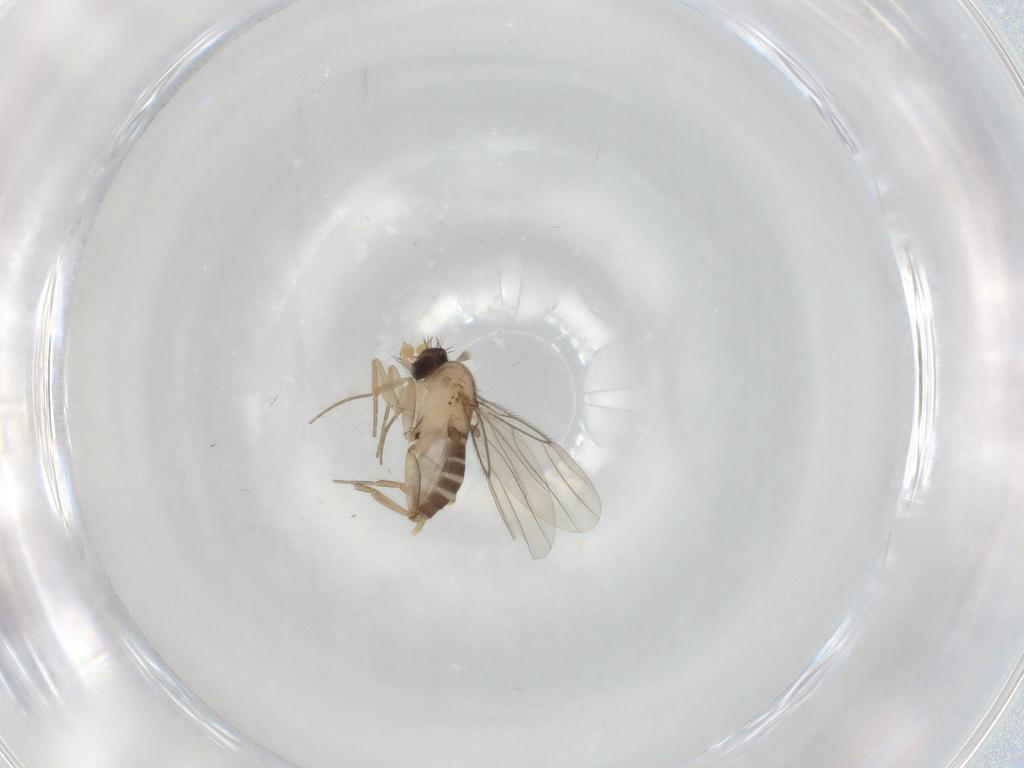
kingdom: Animalia
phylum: Arthropoda
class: Insecta
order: Diptera
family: Phoridae
